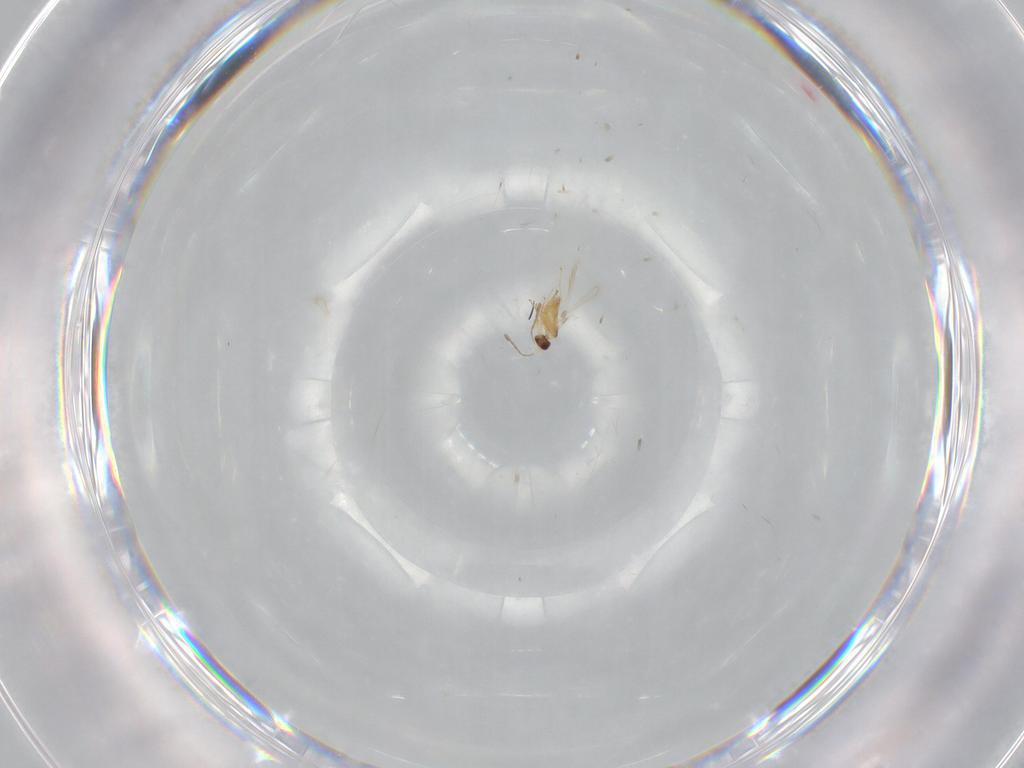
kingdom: Animalia
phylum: Arthropoda
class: Insecta
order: Hymenoptera
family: Mymaridae
